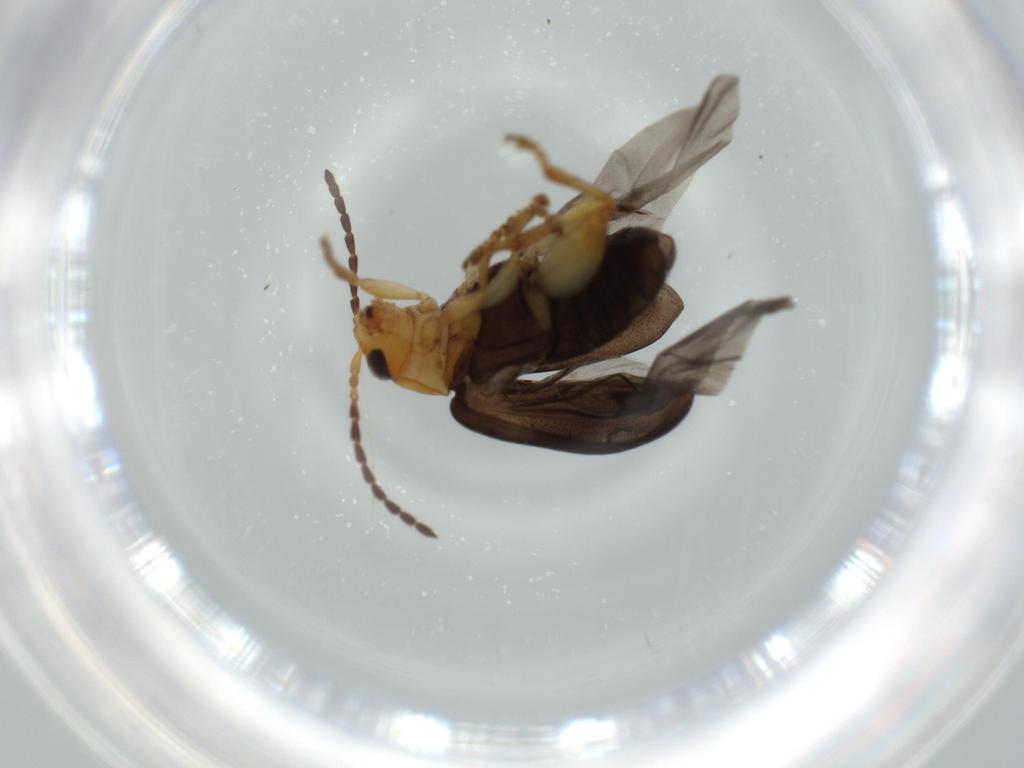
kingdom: Animalia
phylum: Arthropoda
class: Insecta
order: Coleoptera
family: Chrysomelidae
